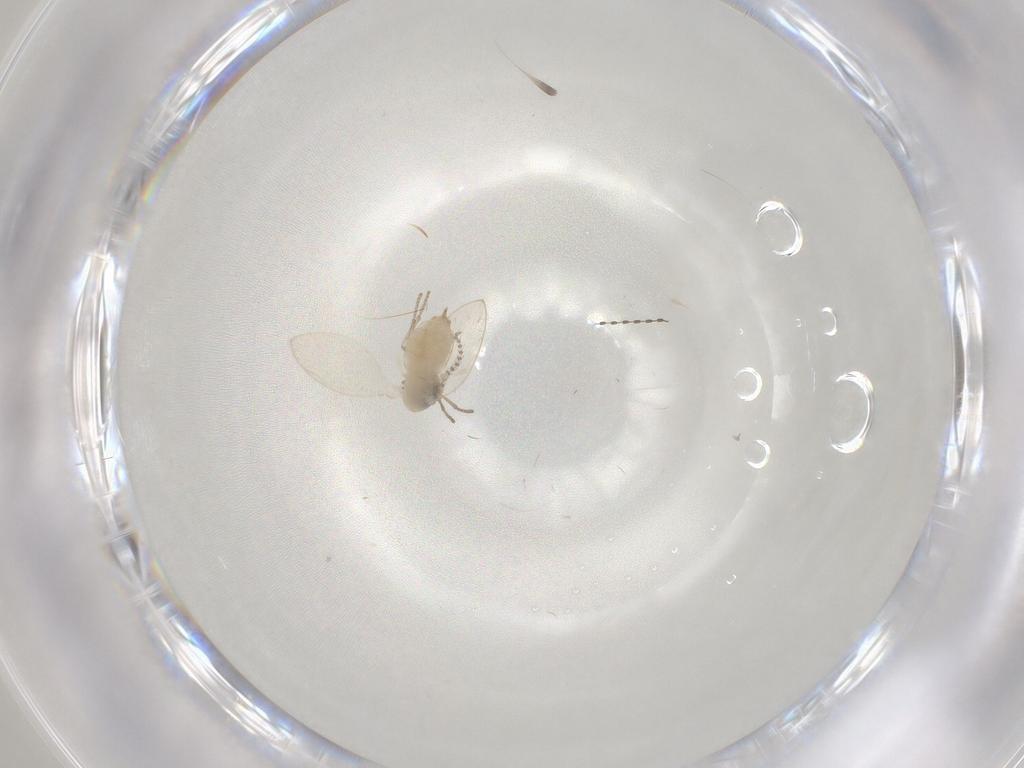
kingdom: Animalia
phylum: Arthropoda
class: Insecta
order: Diptera
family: Psychodidae
